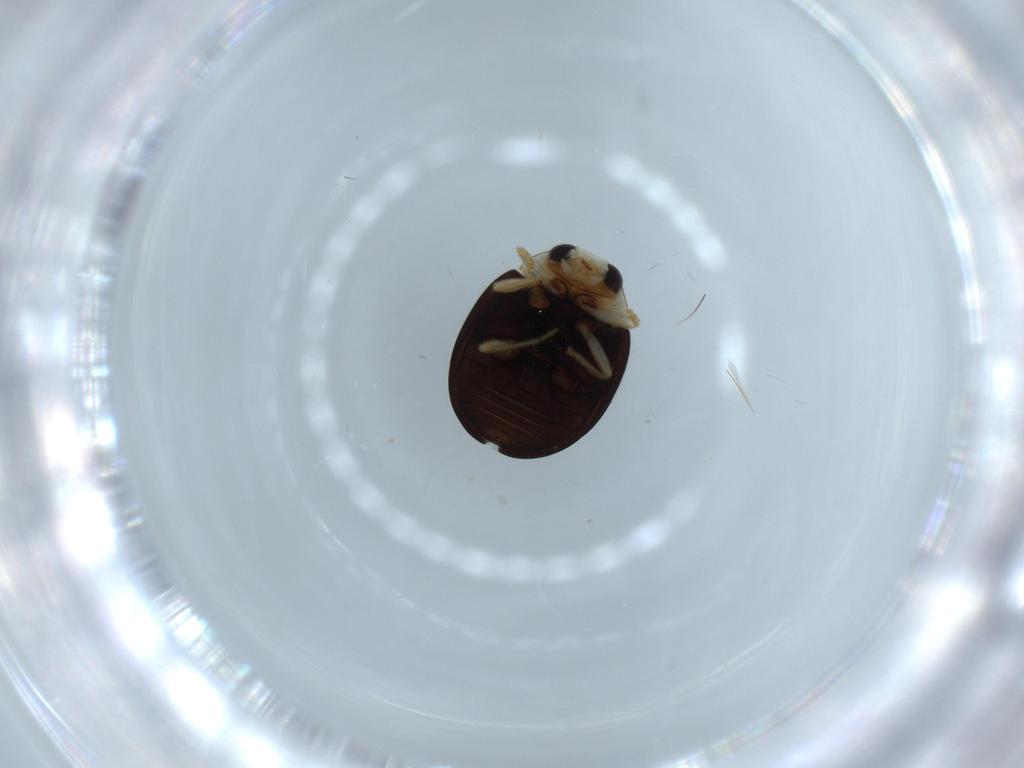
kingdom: Animalia
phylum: Arthropoda
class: Insecta
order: Coleoptera
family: Coccinellidae
